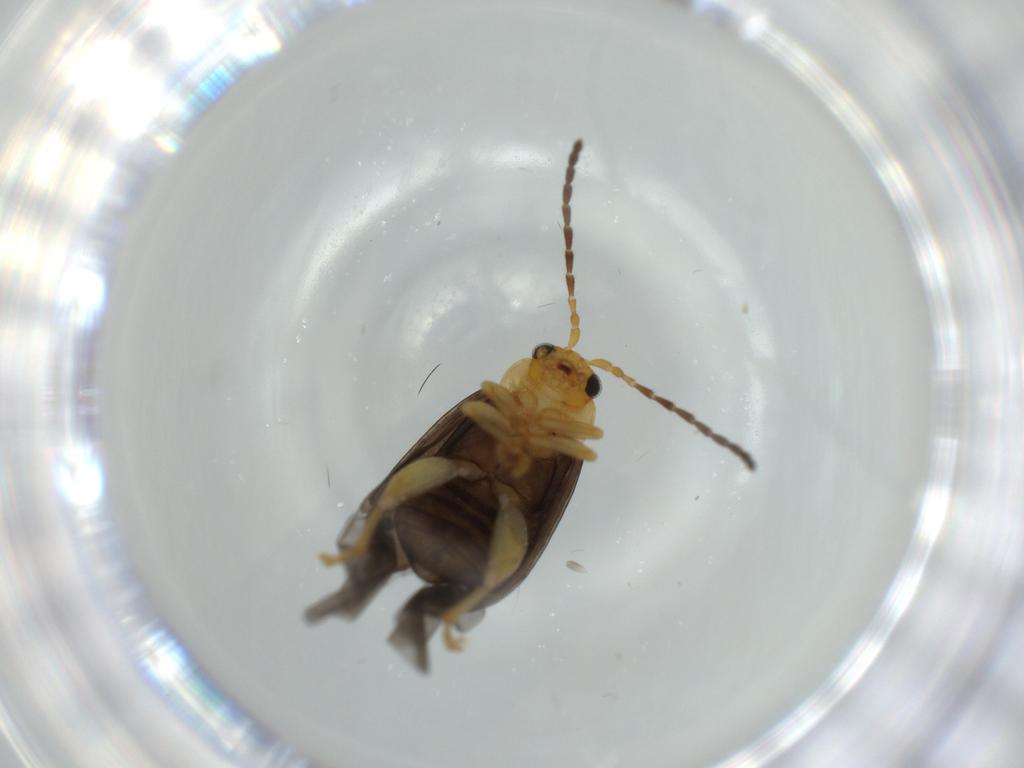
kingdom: Animalia
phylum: Arthropoda
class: Insecta
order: Coleoptera
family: Chrysomelidae
